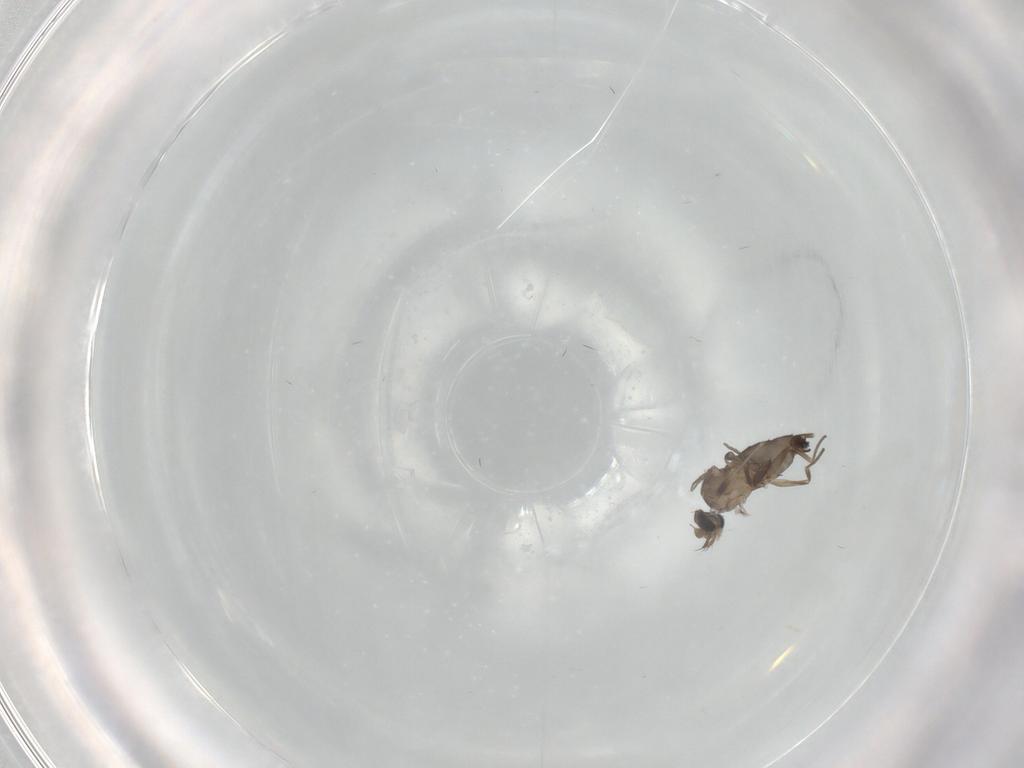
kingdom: Animalia
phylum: Arthropoda
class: Insecta
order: Diptera
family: Phoridae
